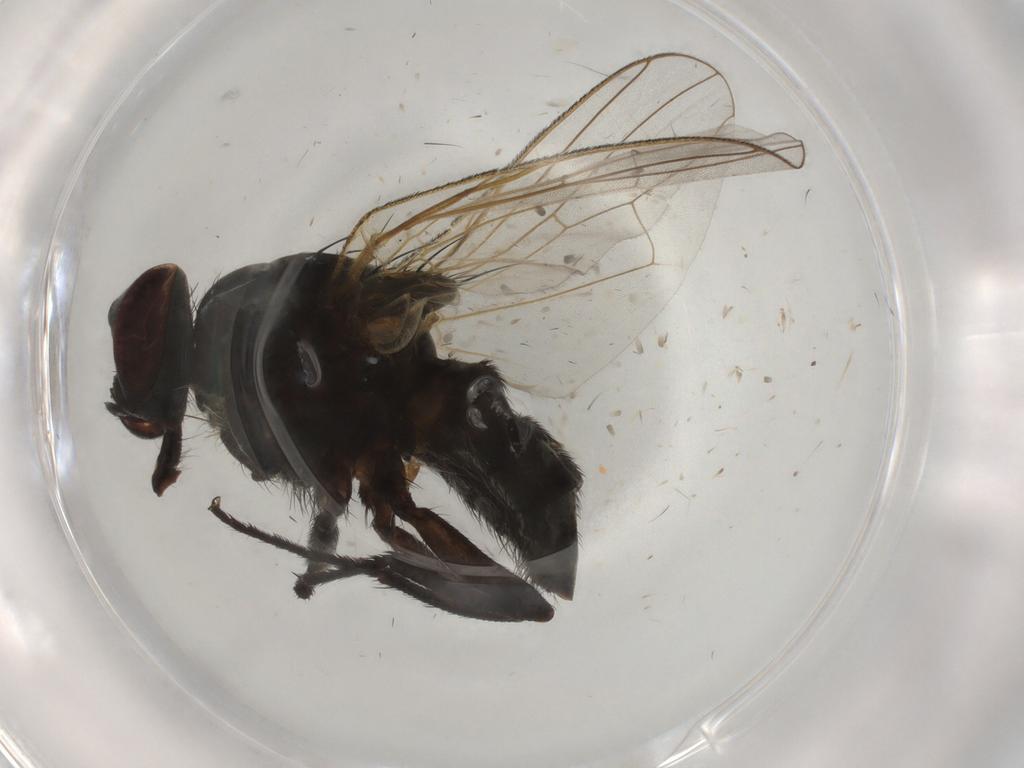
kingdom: Animalia
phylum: Arthropoda
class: Insecta
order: Diptera
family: Muscidae
